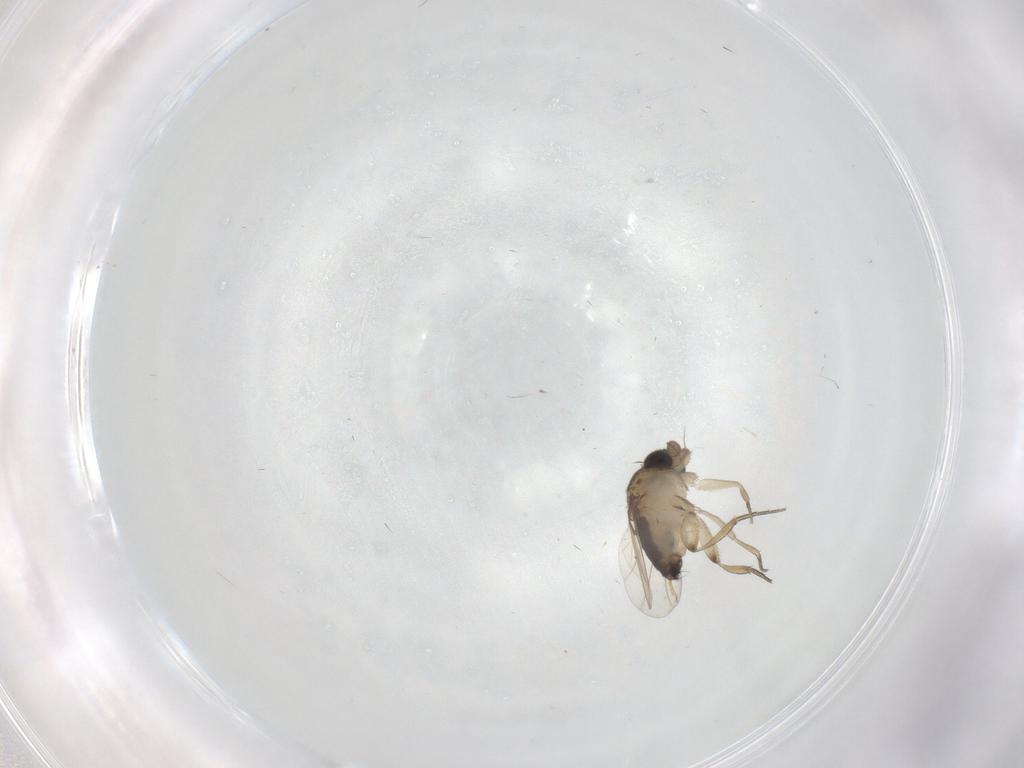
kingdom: Animalia
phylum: Arthropoda
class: Insecta
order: Diptera
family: Phoridae
